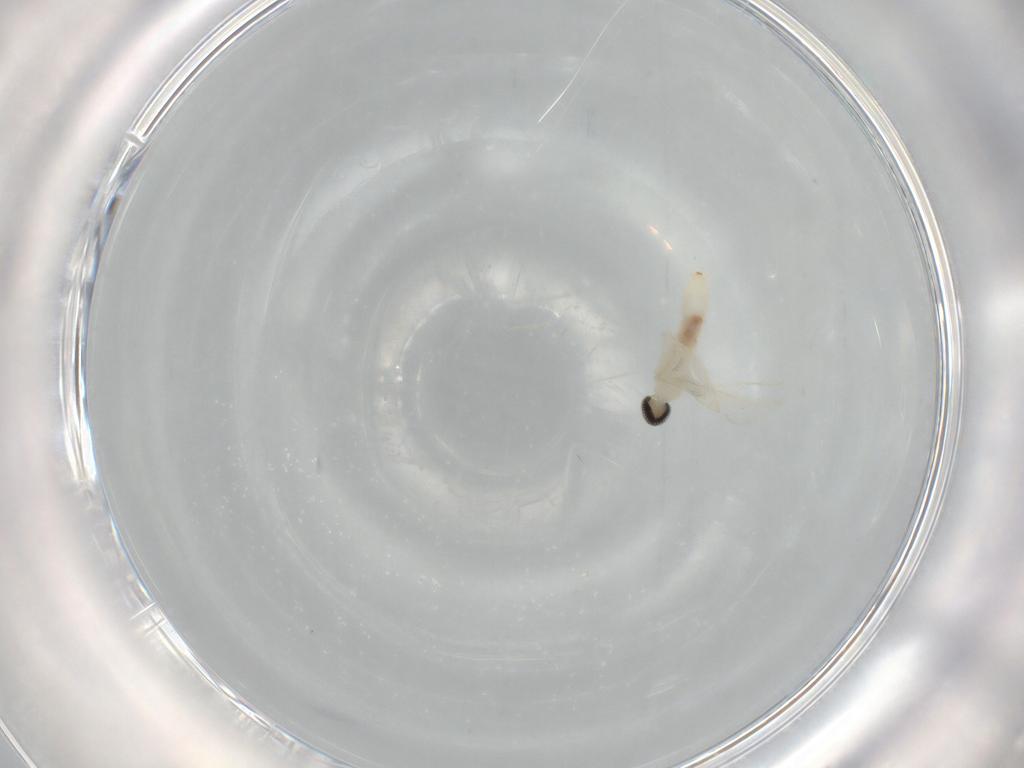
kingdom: Animalia
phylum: Arthropoda
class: Insecta
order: Diptera
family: Cecidomyiidae
